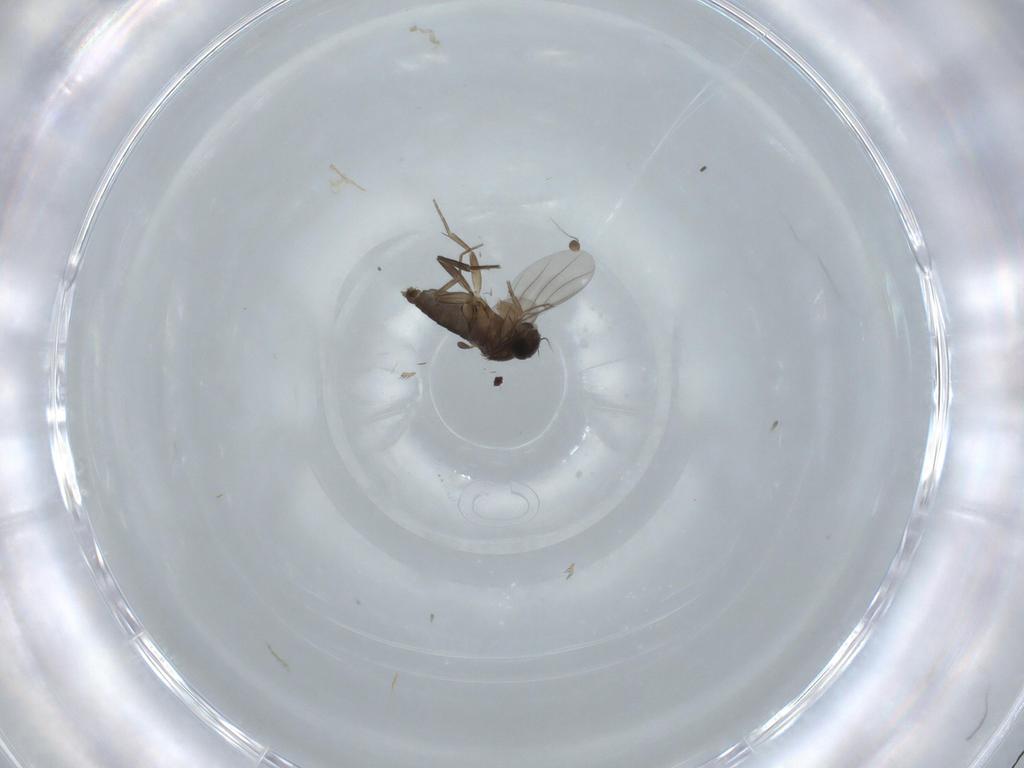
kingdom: Animalia
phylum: Arthropoda
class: Insecta
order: Diptera
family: Phoridae
